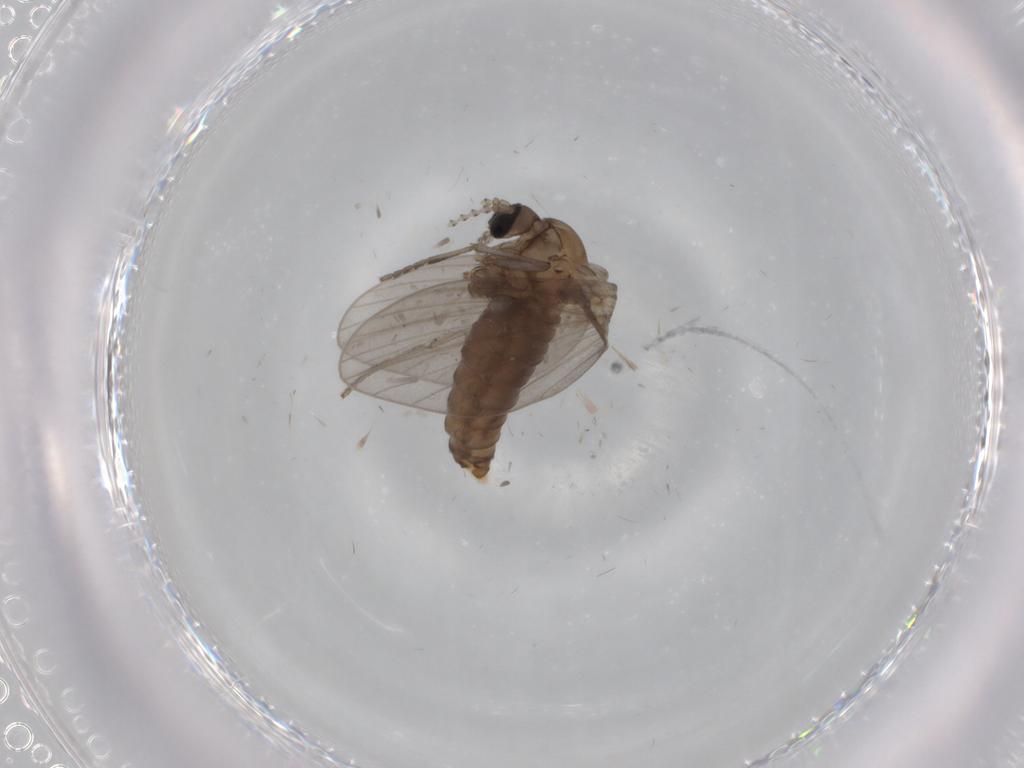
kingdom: Animalia
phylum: Arthropoda
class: Insecta
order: Diptera
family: Psychodidae
